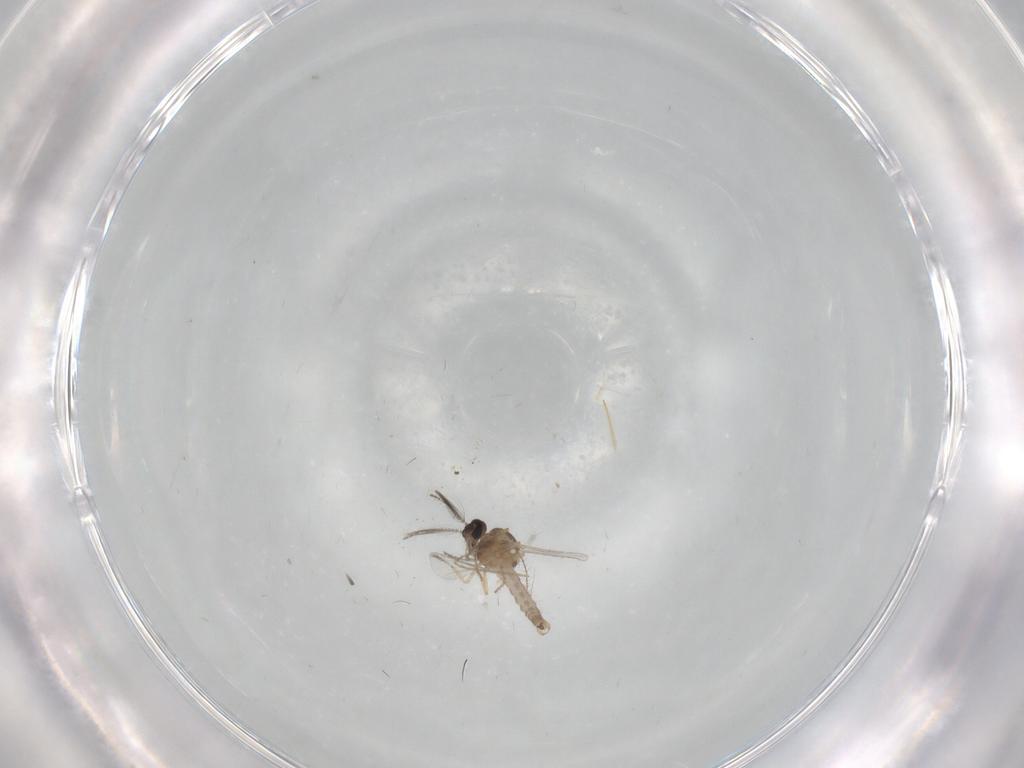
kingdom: Animalia
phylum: Arthropoda
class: Insecta
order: Diptera
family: Ceratopogonidae
